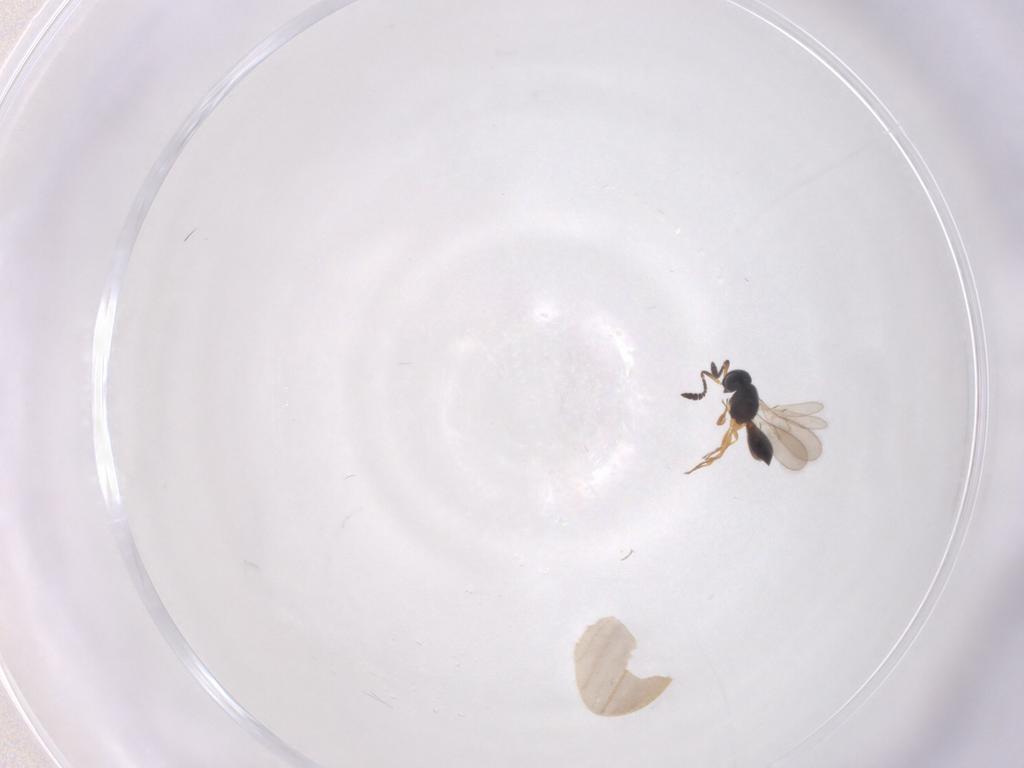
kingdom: Animalia
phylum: Arthropoda
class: Insecta
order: Hymenoptera
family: Scelionidae
